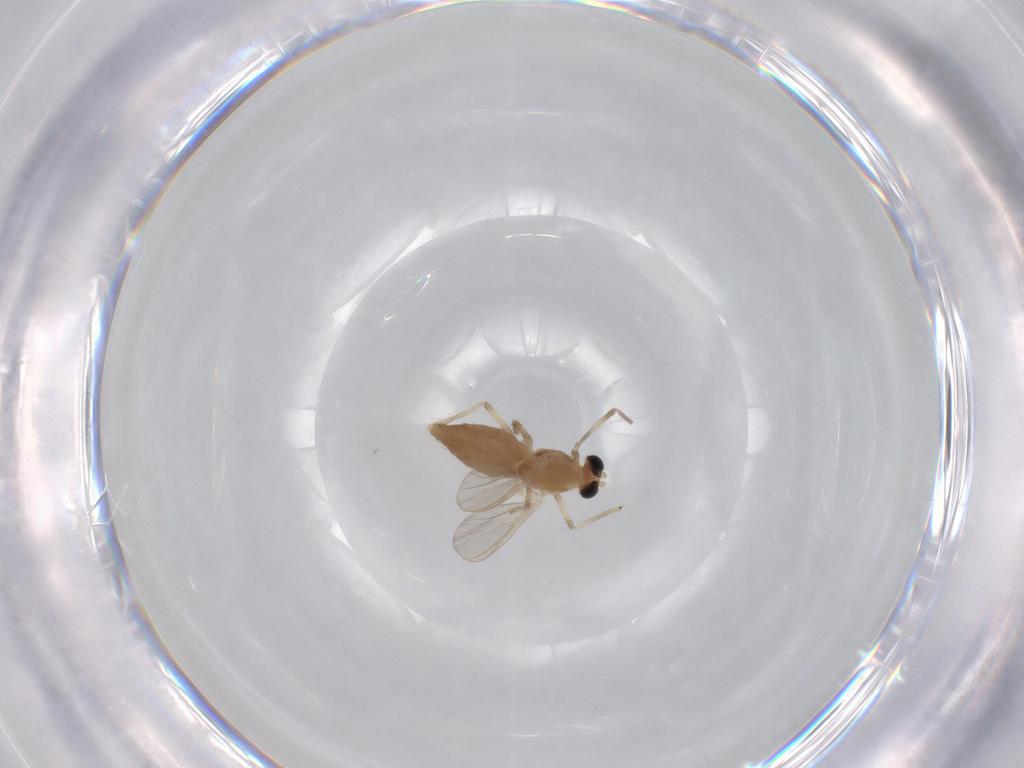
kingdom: Animalia
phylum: Arthropoda
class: Insecta
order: Diptera
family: Chironomidae
